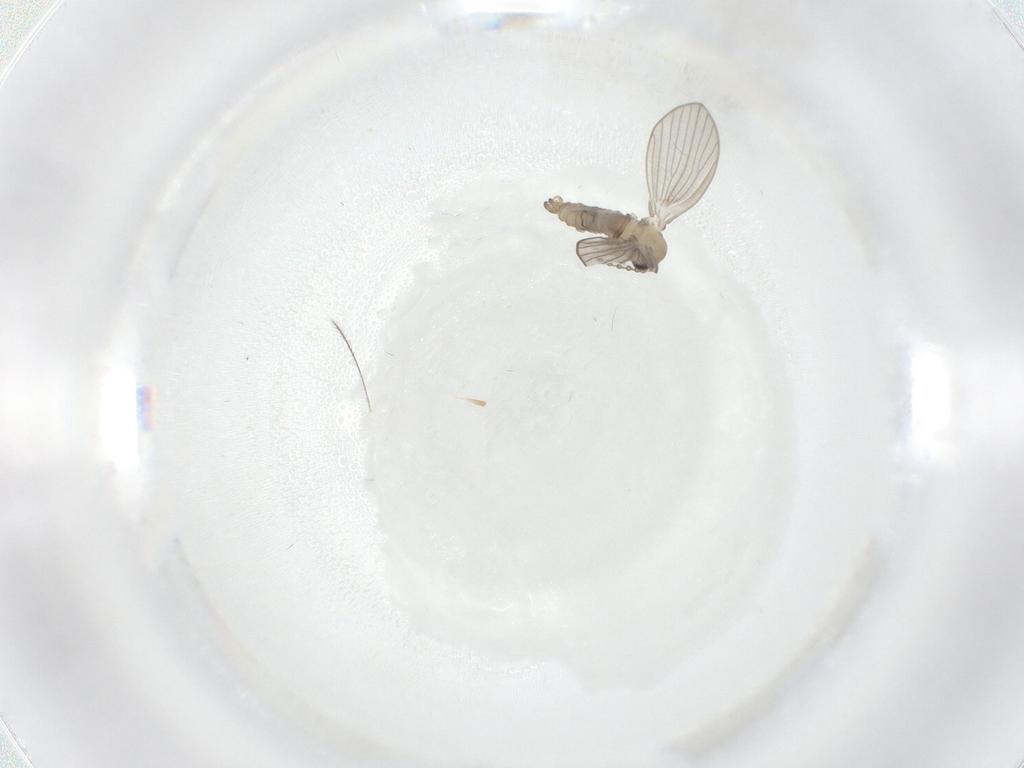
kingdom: Animalia
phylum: Arthropoda
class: Insecta
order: Diptera
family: Psychodidae
